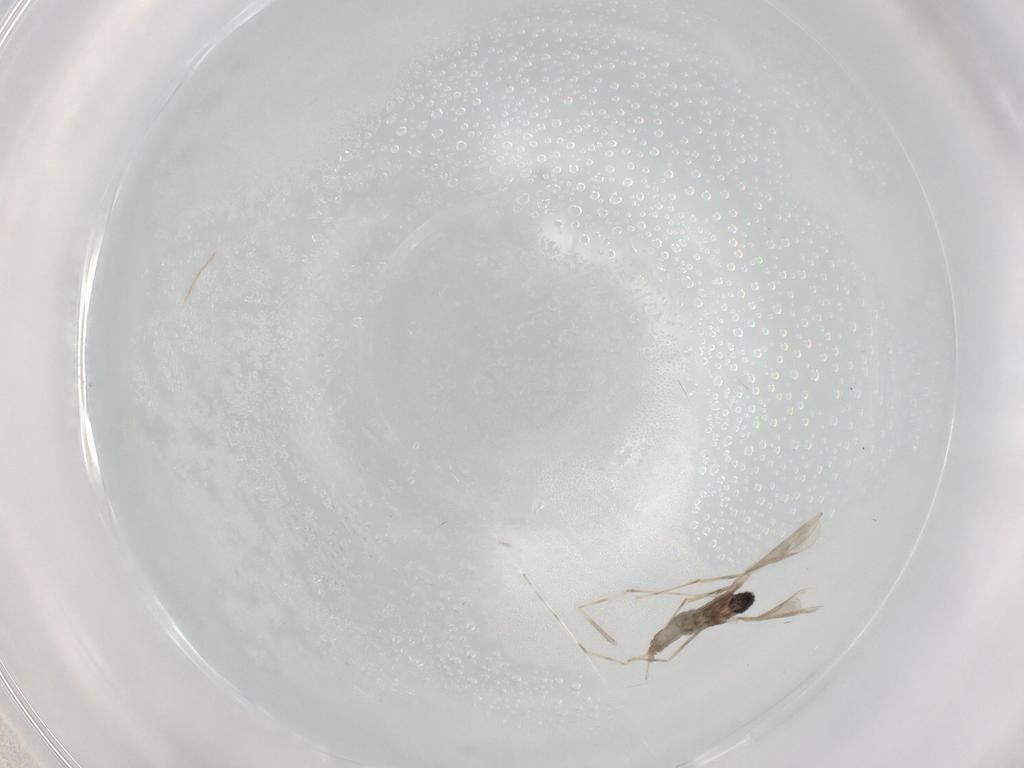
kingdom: Animalia
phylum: Arthropoda
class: Insecta
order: Diptera
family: Cecidomyiidae
